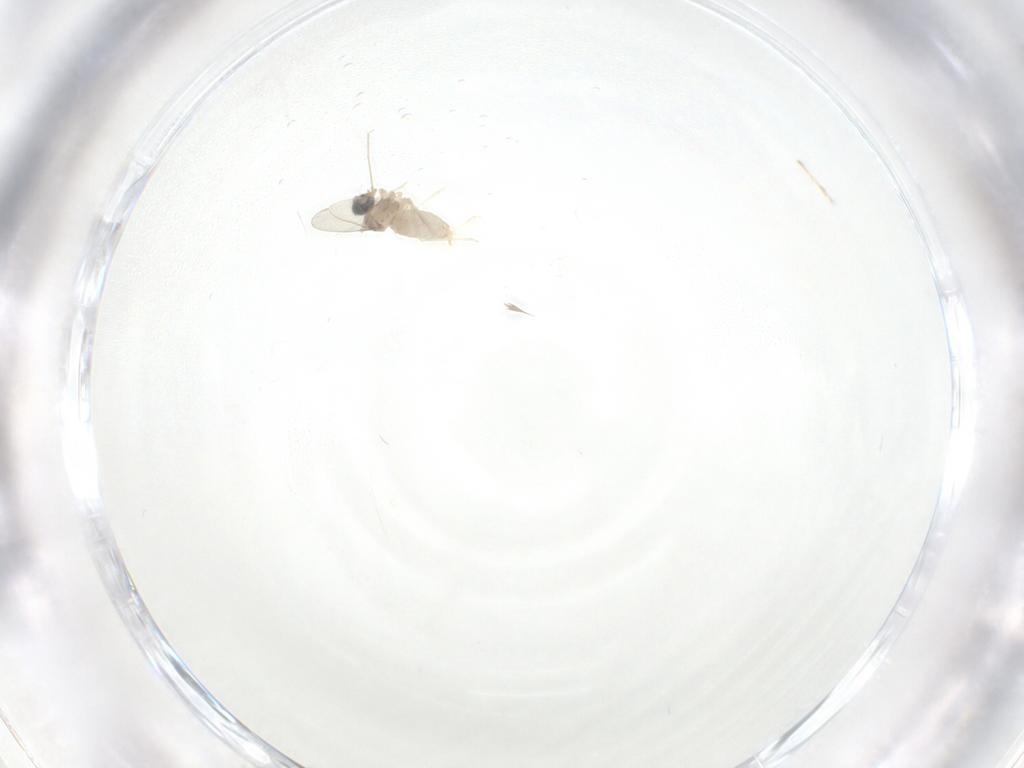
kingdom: Animalia
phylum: Arthropoda
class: Insecta
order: Diptera
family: Cecidomyiidae
